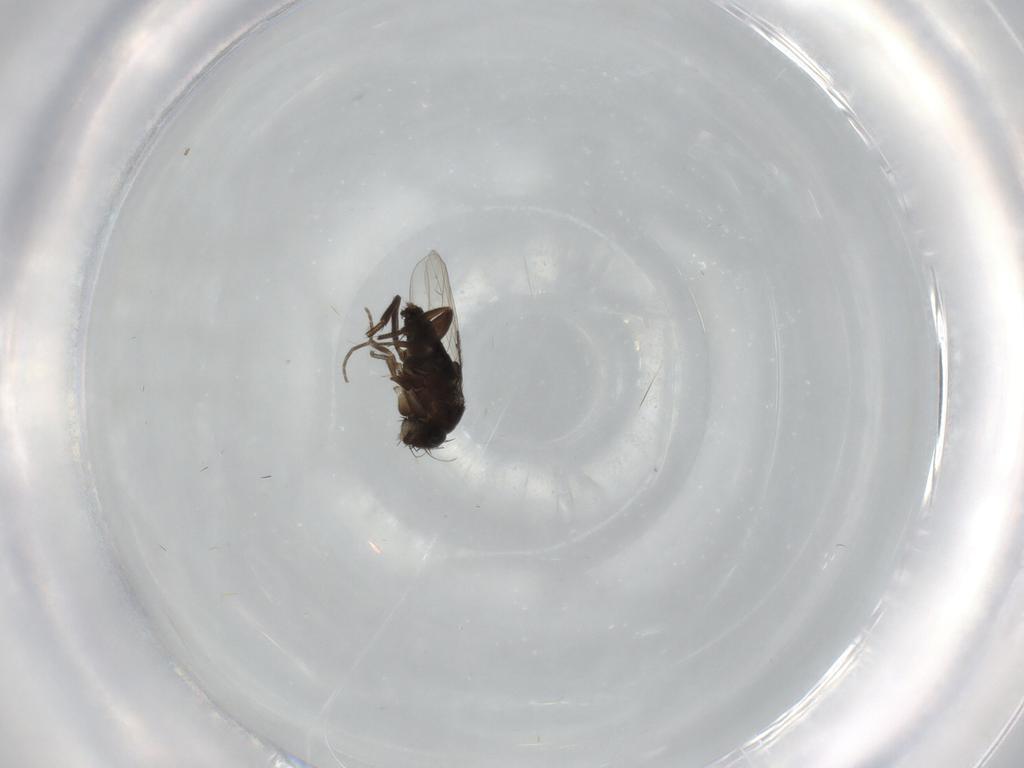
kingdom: Animalia
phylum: Arthropoda
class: Insecta
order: Diptera
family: Phoridae
